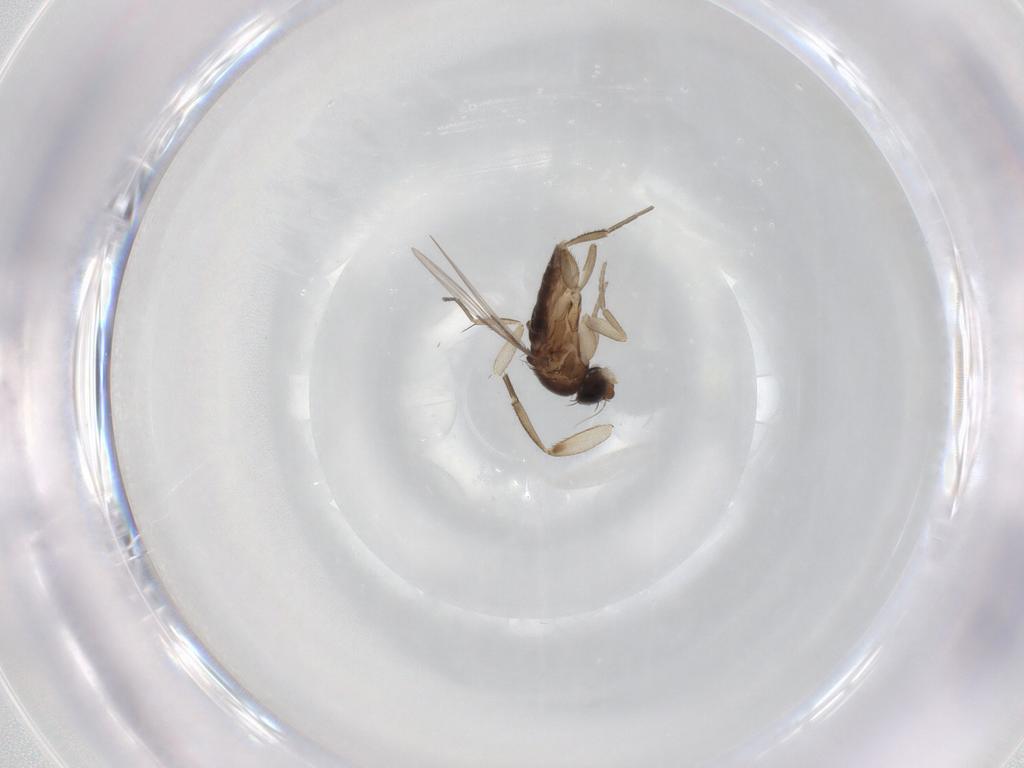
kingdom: Animalia
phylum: Arthropoda
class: Insecta
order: Diptera
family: Phoridae
